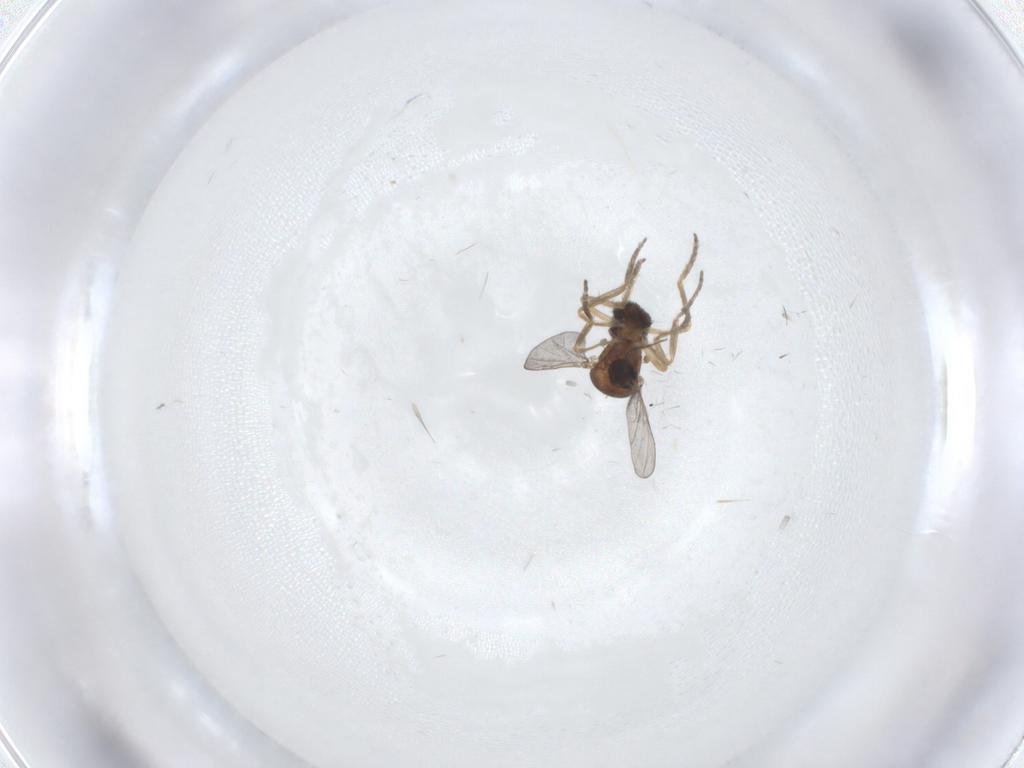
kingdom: Animalia
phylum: Arthropoda
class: Insecta
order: Diptera
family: Ceratopogonidae
